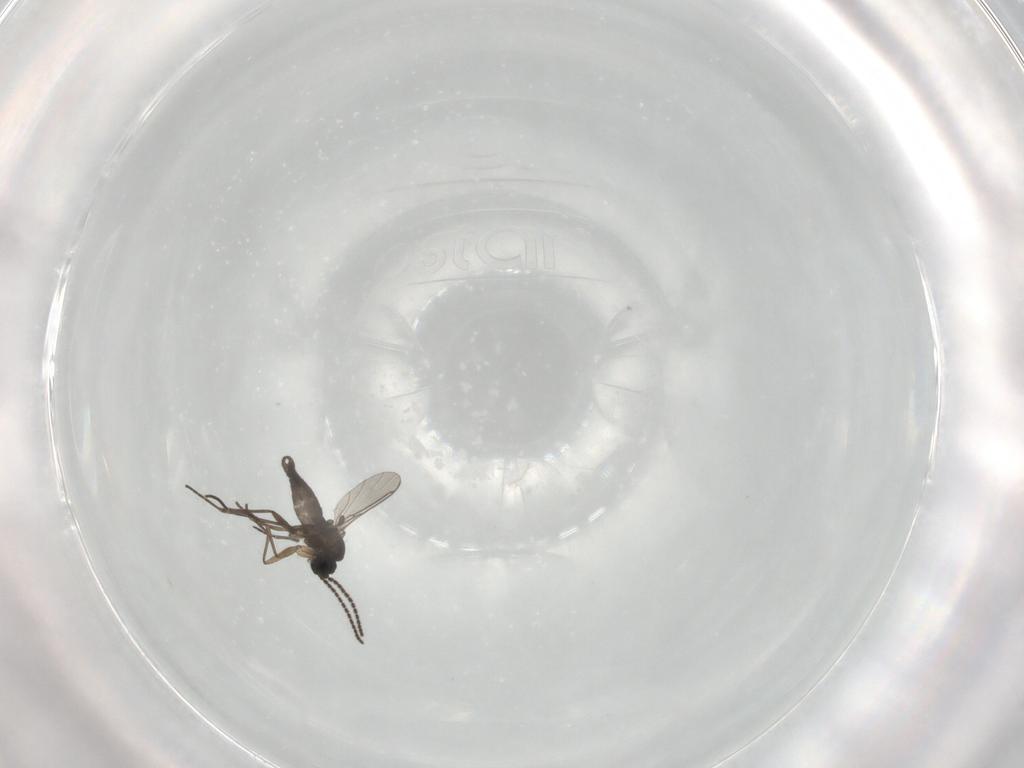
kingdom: Animalia
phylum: Arthropoda
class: Insecta
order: Diptera
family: Sciaridae
